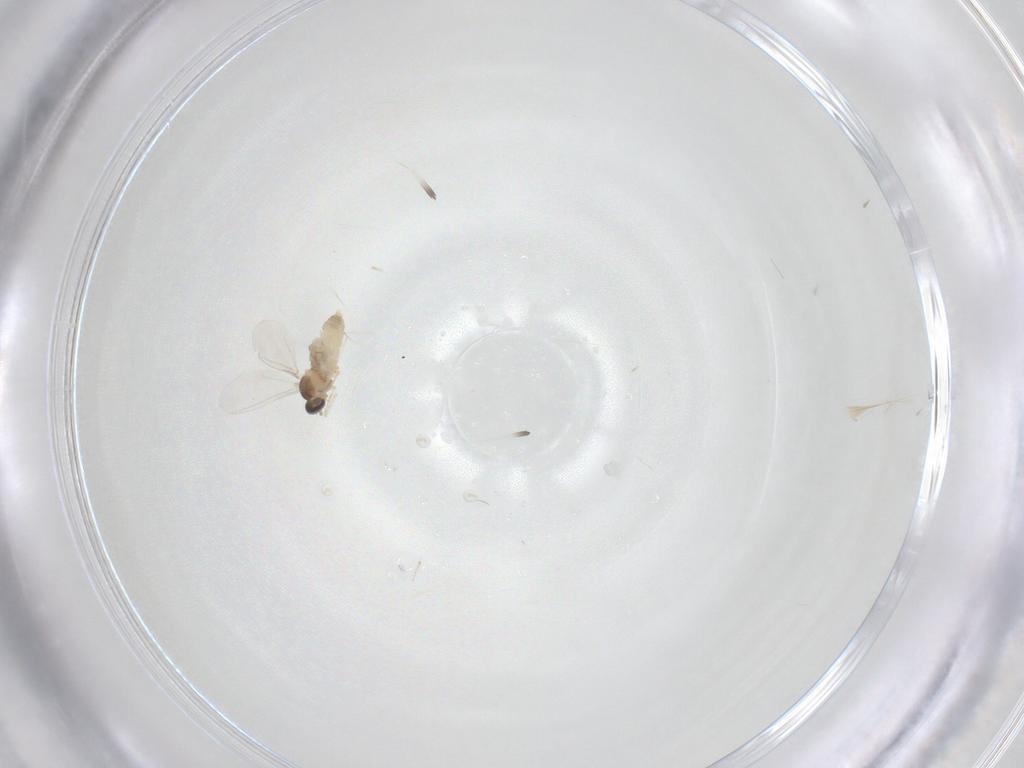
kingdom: Animalia
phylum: Arthropoda
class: Insecta
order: Diptera
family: Cecidomyiidae
